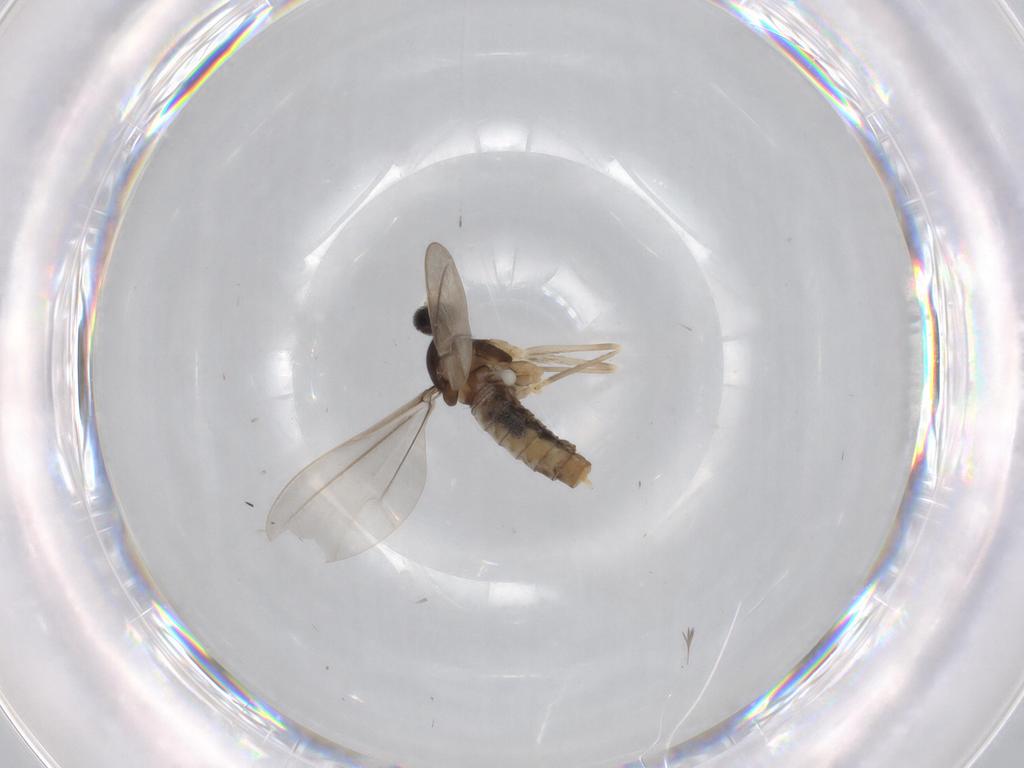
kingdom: Animalia
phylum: Arthropoda
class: Insecta
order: Diptera
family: Cecidomyiidae
